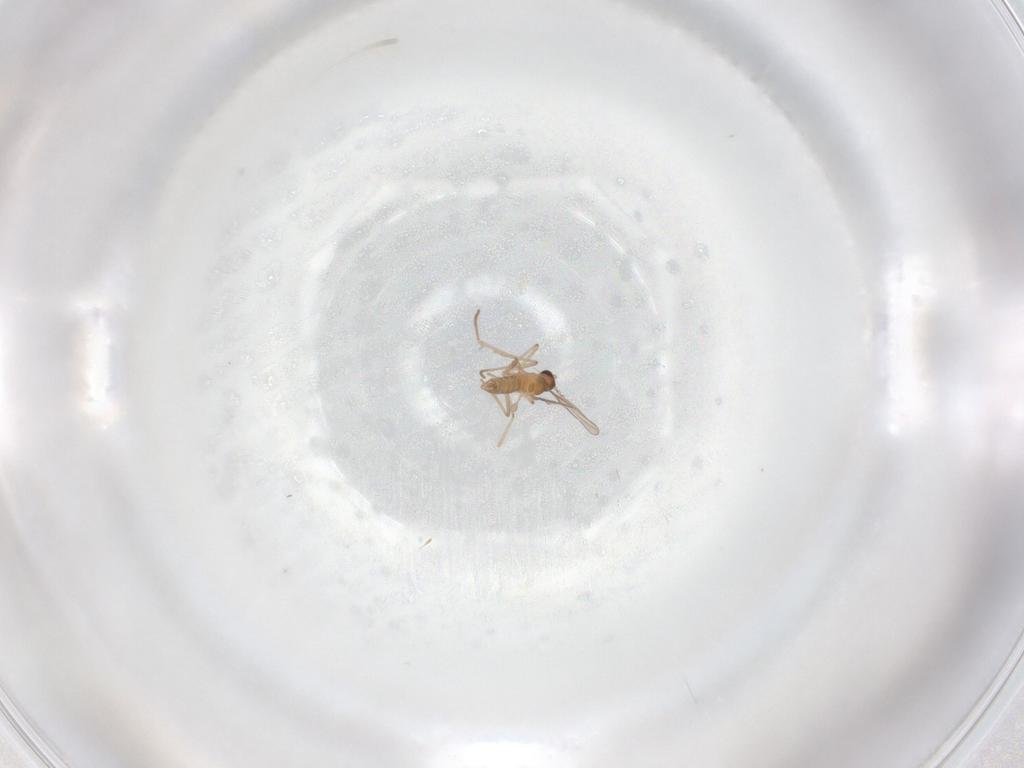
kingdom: Animalia
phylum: Arthropoda
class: Insecta
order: Diptera
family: Cecidomyiidae
